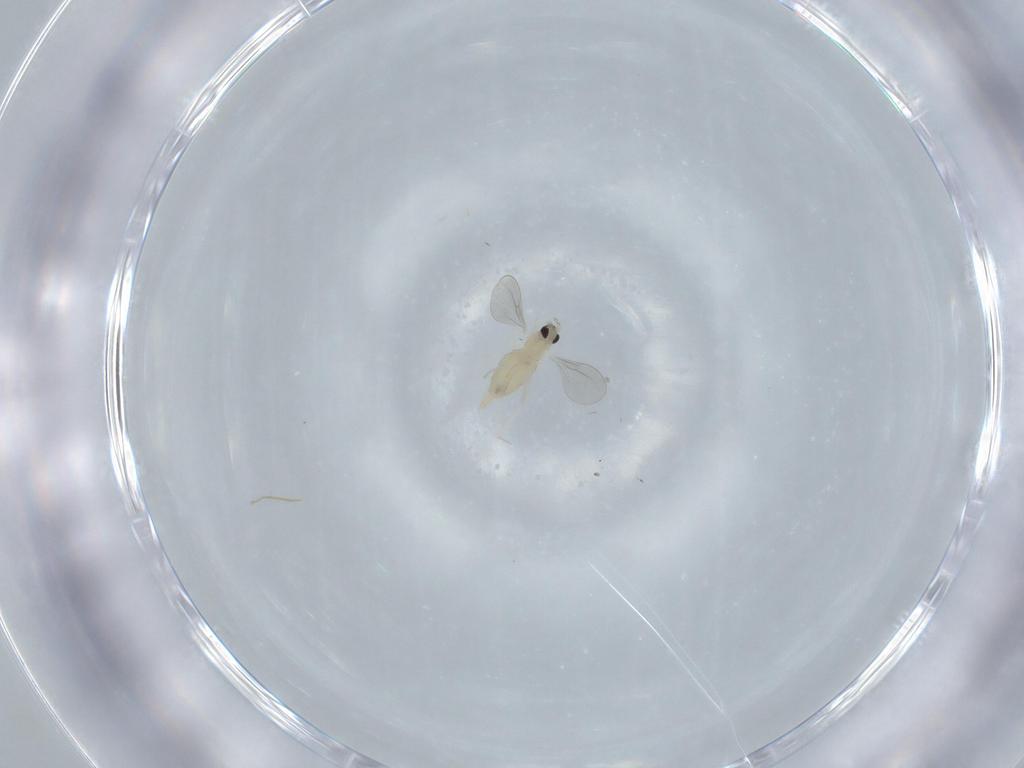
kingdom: Animalia
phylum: Arthropoda
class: Insecta
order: Diptera
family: Cecidomyiidae
